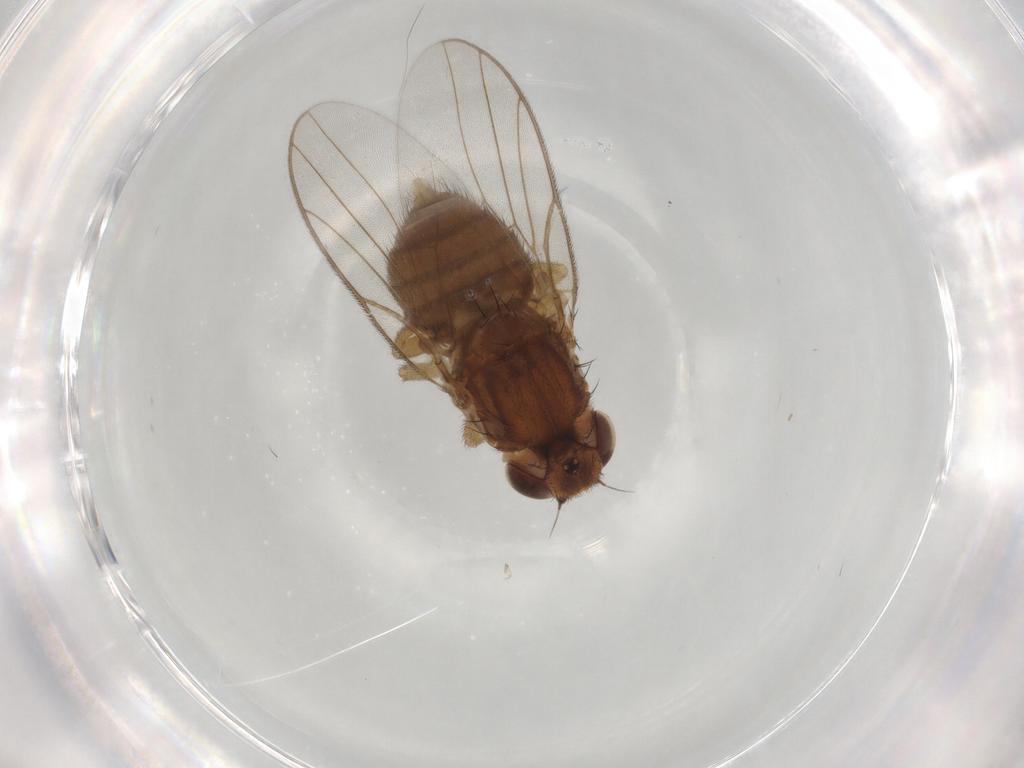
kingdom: Animalia
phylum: Arthropoda
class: Insecta
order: Diptera
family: Chloropidae
